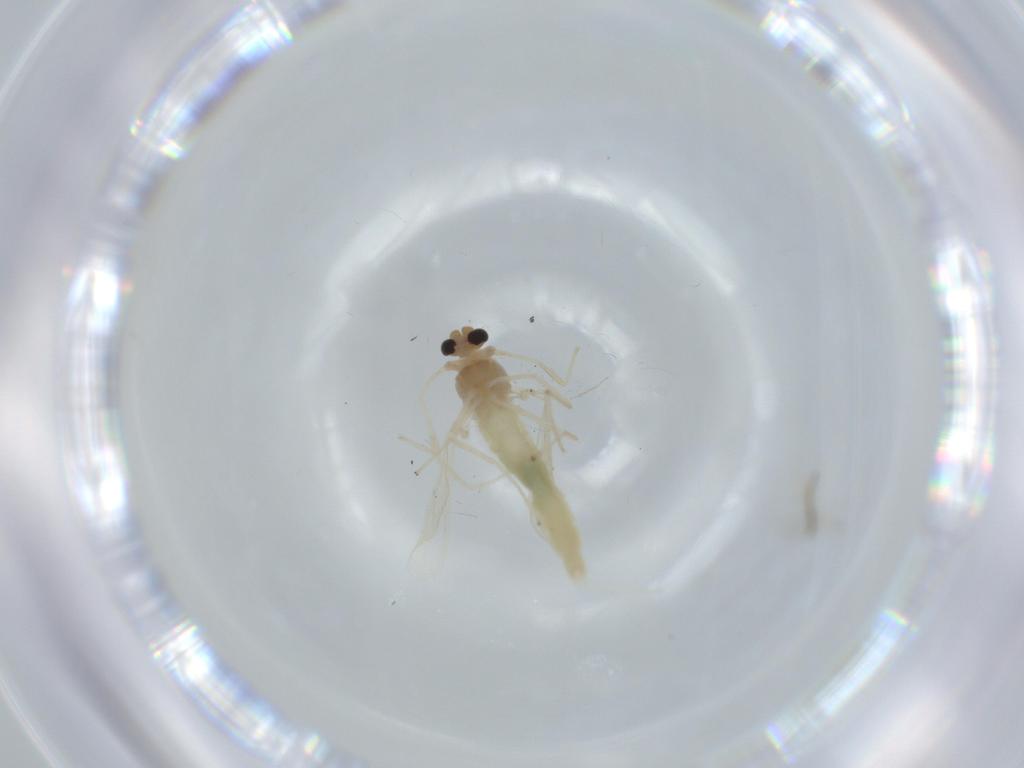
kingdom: Animalia
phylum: Arthropoda
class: Insecta
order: Diptera
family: Chironomidae
